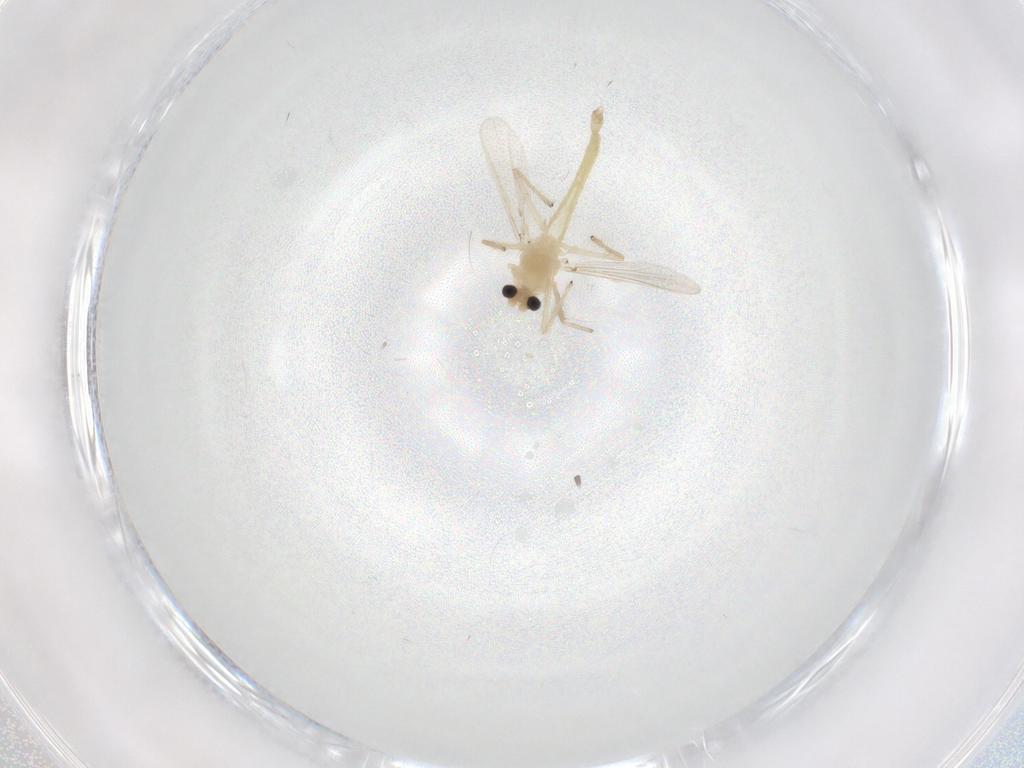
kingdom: Animalia
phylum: Arthropoda
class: Insecta
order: Diptera
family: Chironomidae
